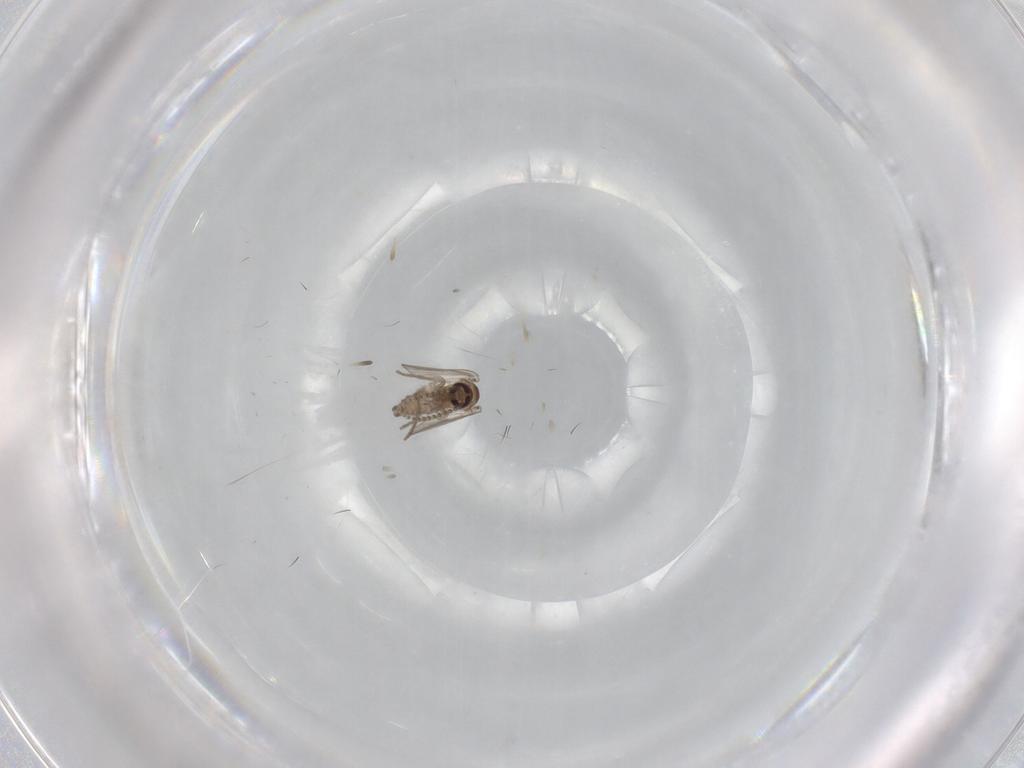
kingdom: Animalia
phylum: Arthropoda
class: Insecta
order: Diptera
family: Psychodidae
